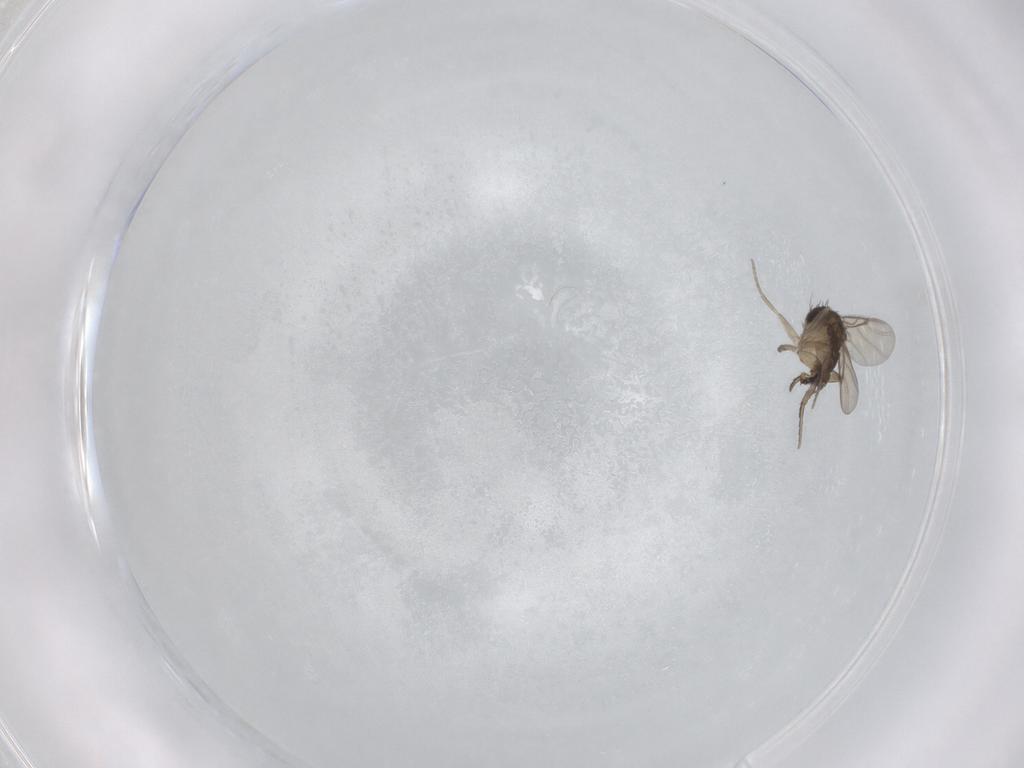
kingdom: Animalia
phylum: Arthropoda
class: Insecta
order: Diptera
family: Phoridae
